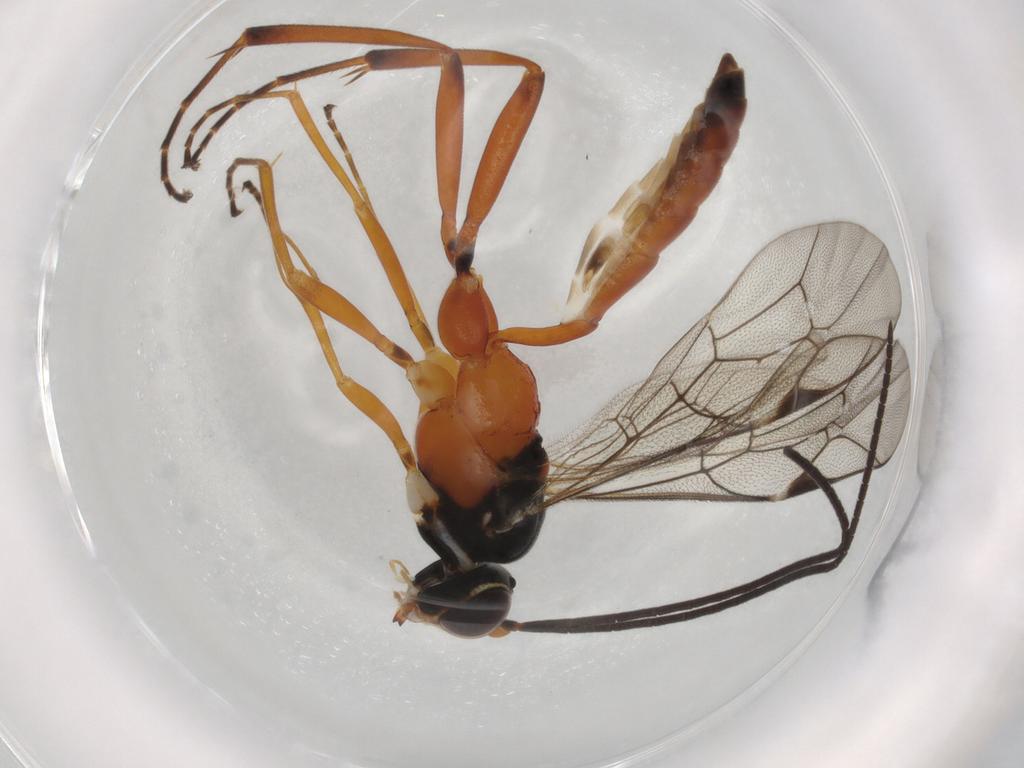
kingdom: Animalia
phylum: Arthropoda
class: Insecta
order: Hymenoptera
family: Ichneumonidae
